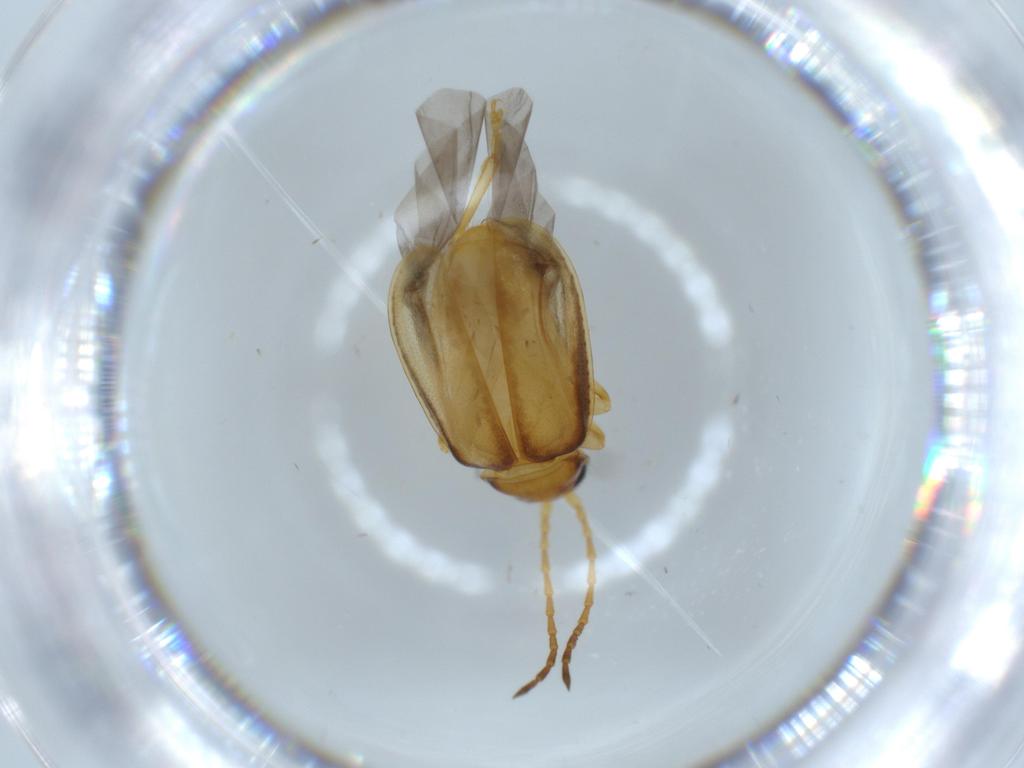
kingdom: Animalia
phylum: Arthropoda
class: Insecta
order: Coleoptera
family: Chrysomelidae
